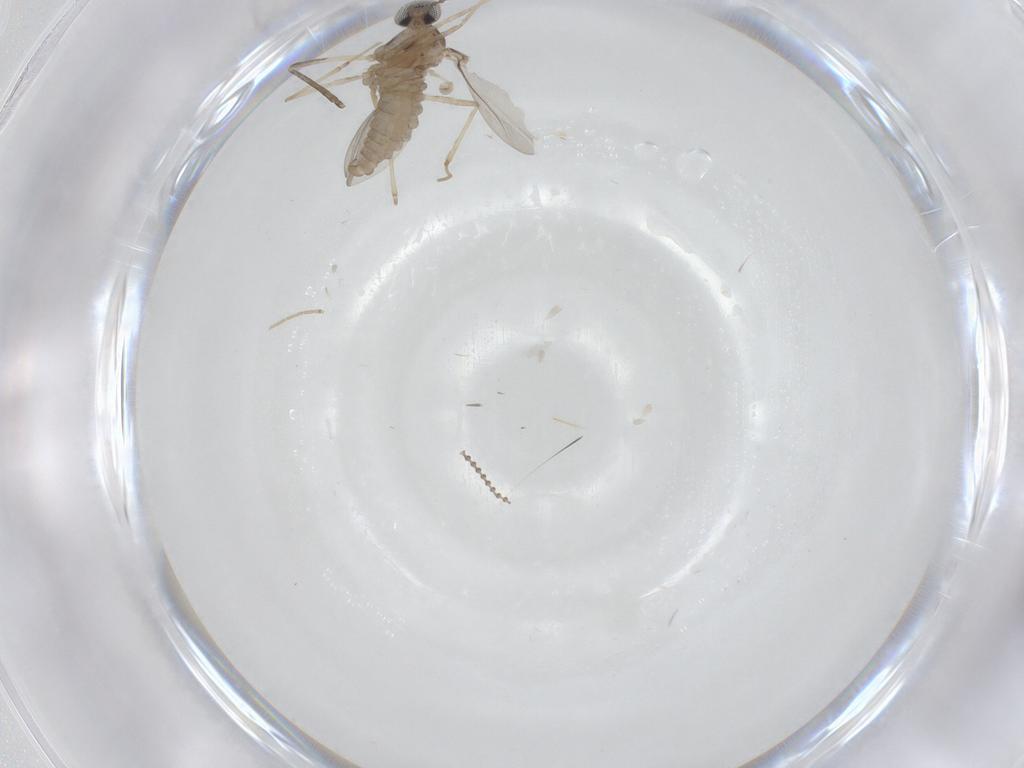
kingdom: Animalia
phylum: Arthropoda
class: Insecta
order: Diptera
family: Cecidomyiidae
